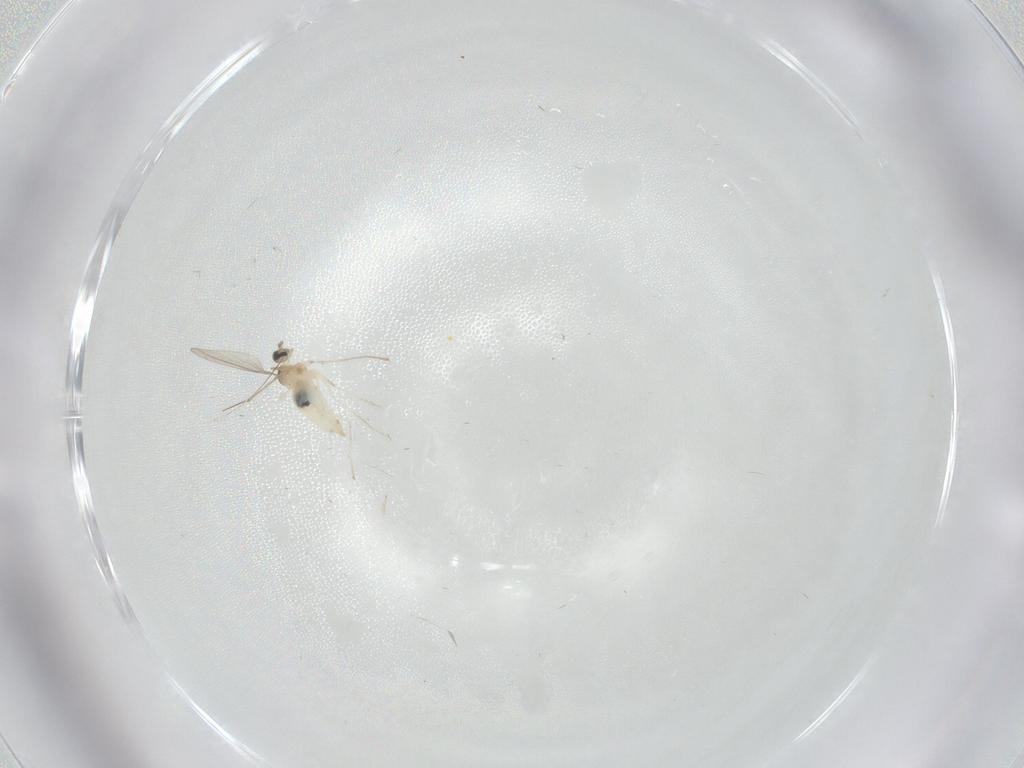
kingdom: Animalia
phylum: Arthropoda
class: Insecta
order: Diptera
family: Cecidomyiidae
